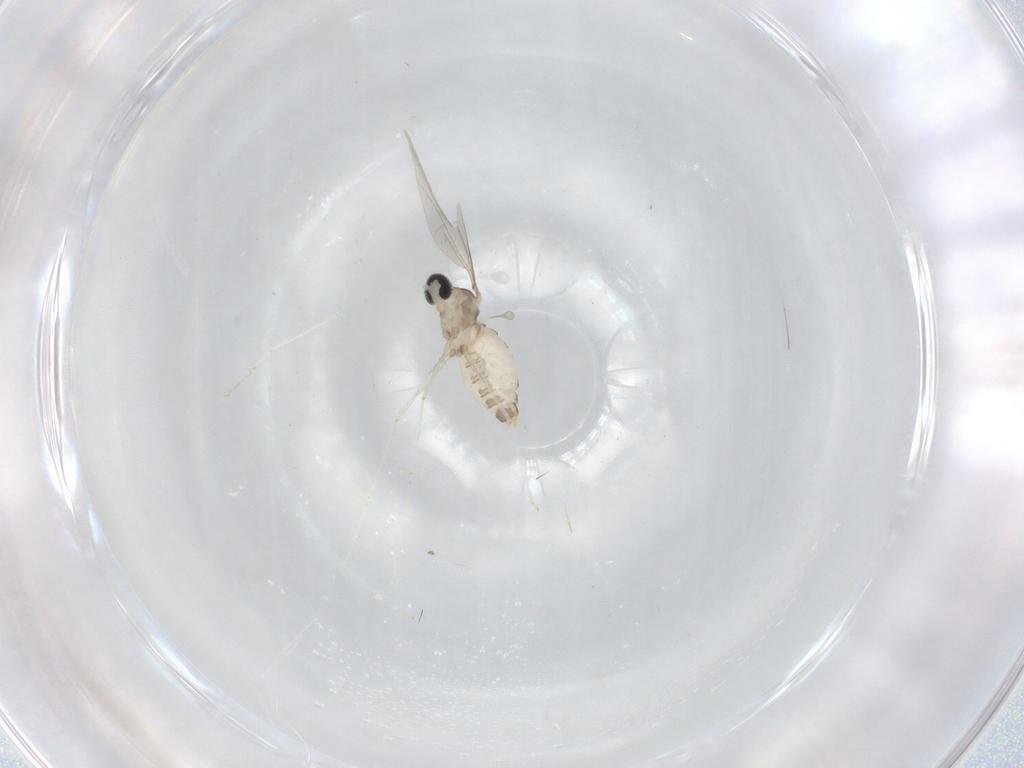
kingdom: Animalia
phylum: Arthropoda
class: Insecta
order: Diptera
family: Cecidomyiidae
